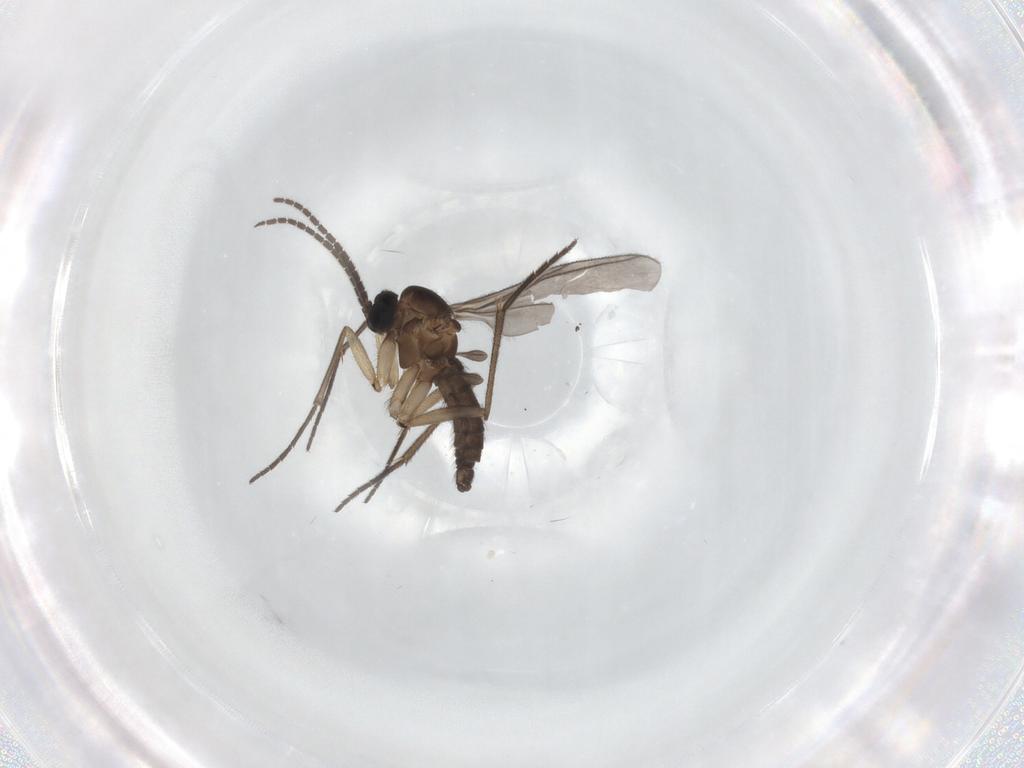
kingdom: Animalia
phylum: Arthropoda
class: Insecta
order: Diptera
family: Sciaridae
